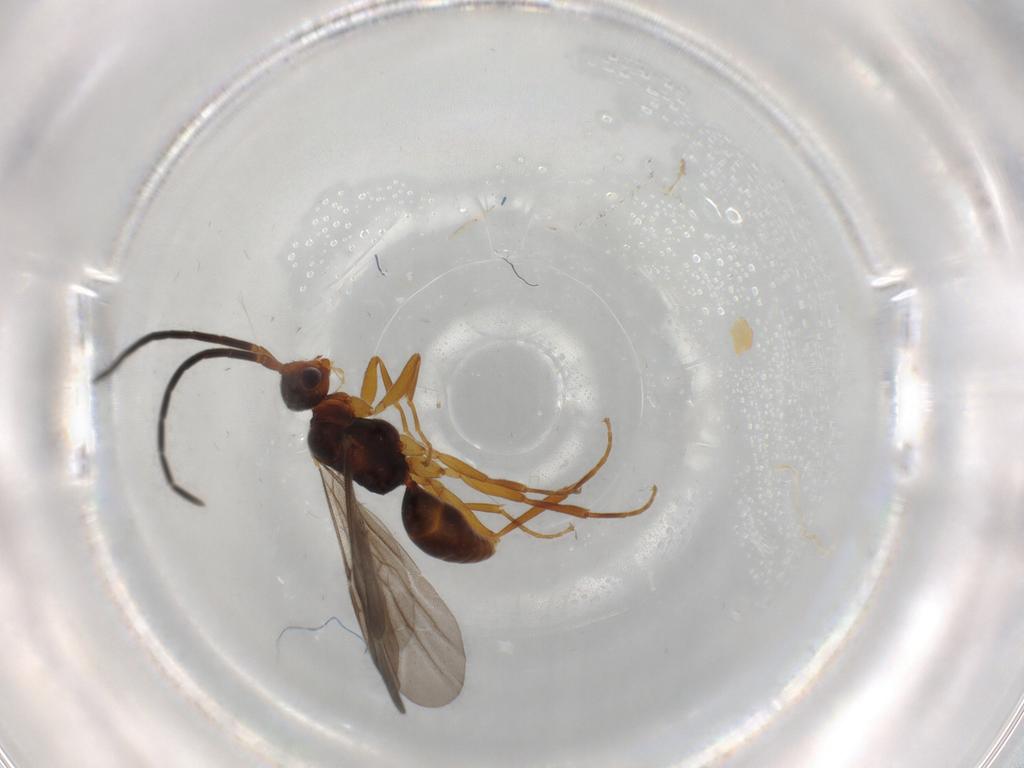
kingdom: Animalia
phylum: Arthropoda
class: Insecta
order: Hymenoptera
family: Embolemidae
